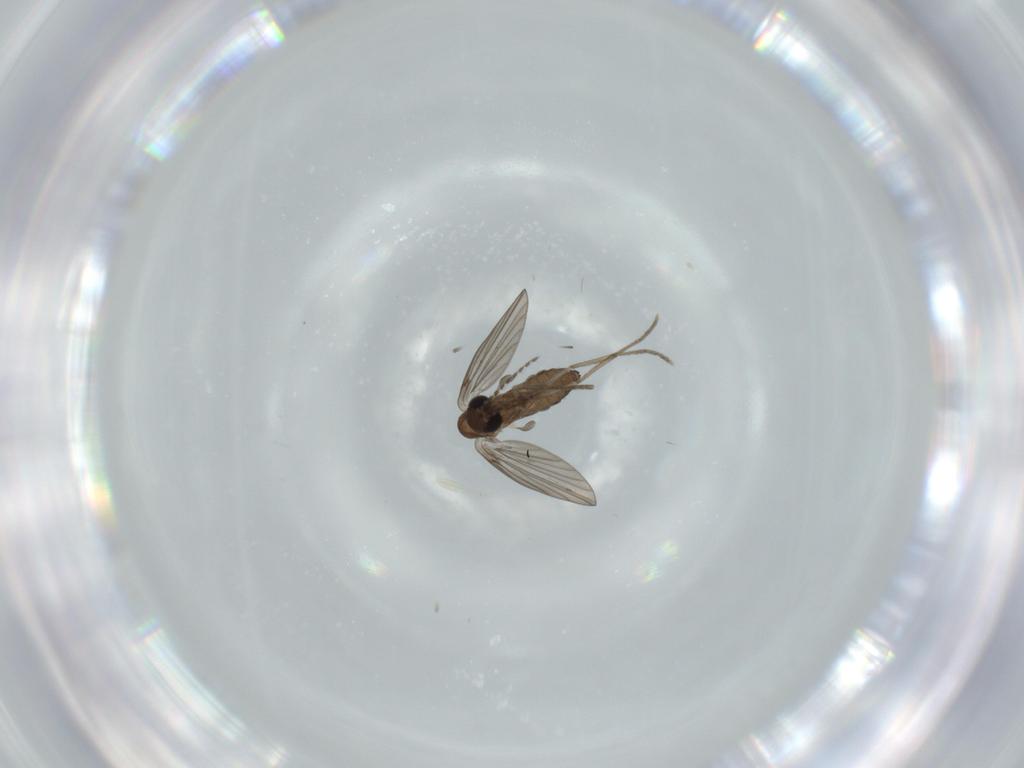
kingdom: Animalia
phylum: Arthropoda
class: Insecta
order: Diptera
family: Psychodidae
